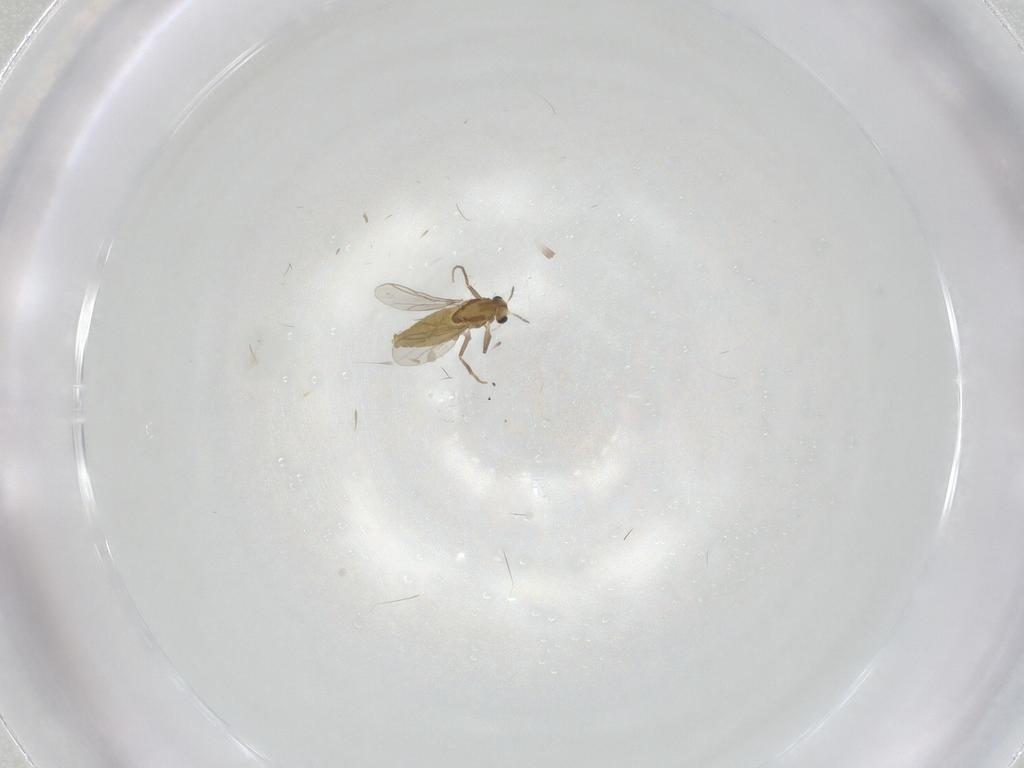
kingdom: Animalia
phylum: Arthropoda
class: Insecta
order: Diptera
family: Chironomidae
